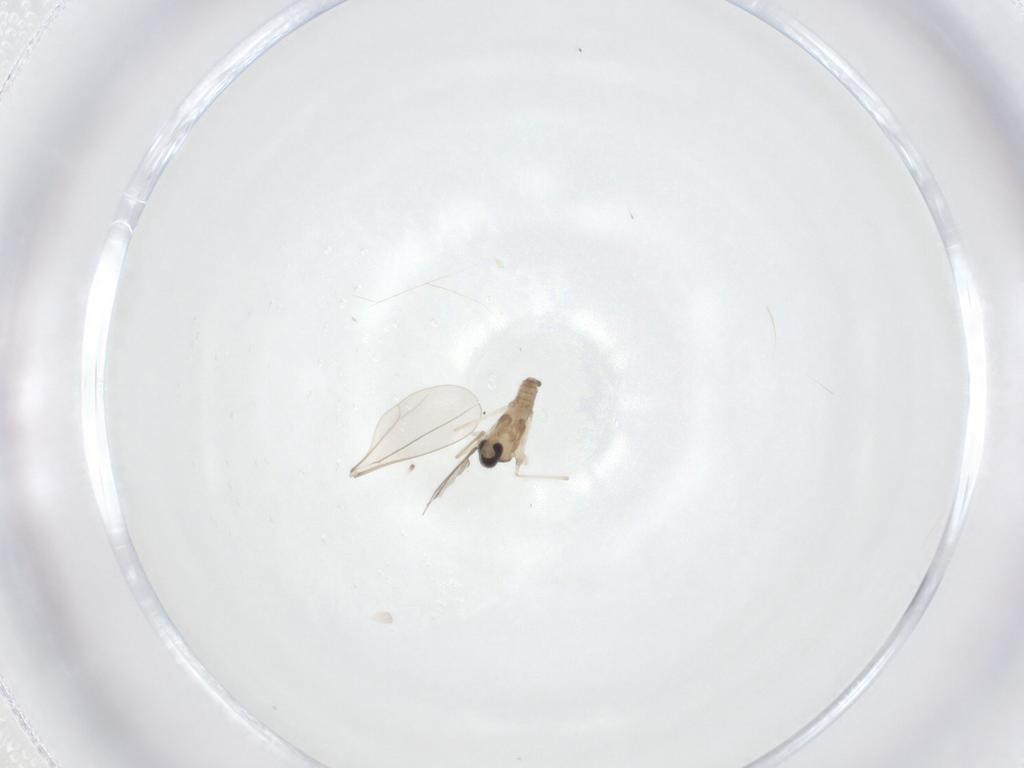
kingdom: Animalia
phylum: Arthropoda
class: Insecta
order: Diptera
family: Cecidomyiidae
